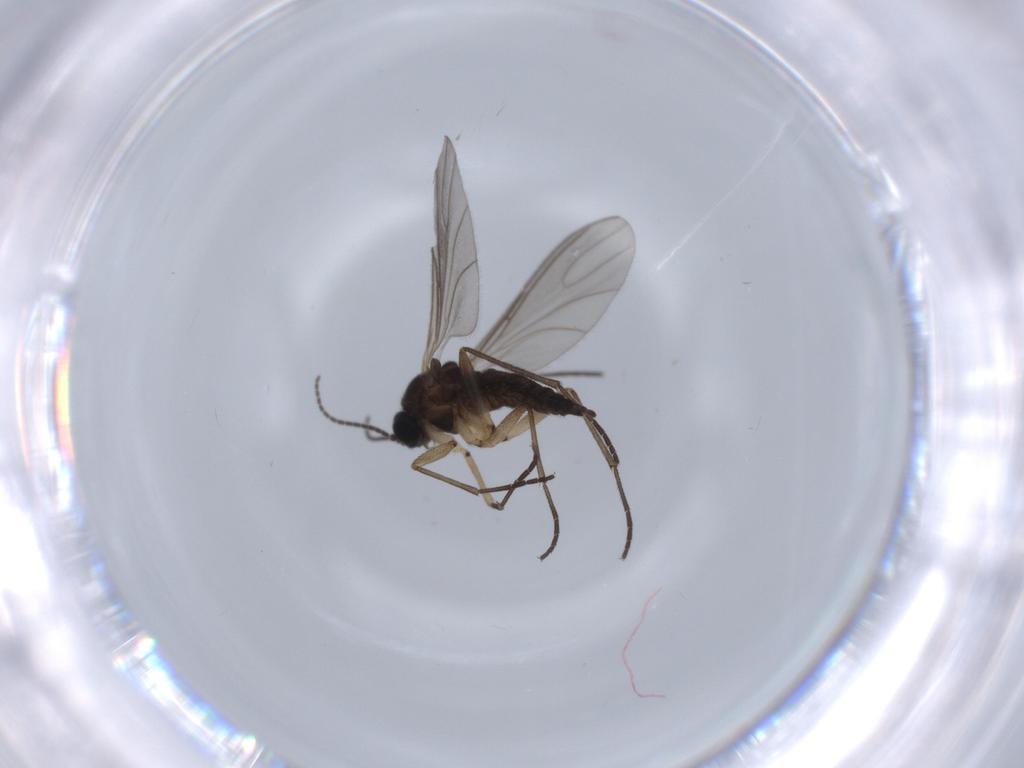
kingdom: Animalia
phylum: Arthropoda
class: Insecta
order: Diptera
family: Sciaridae
